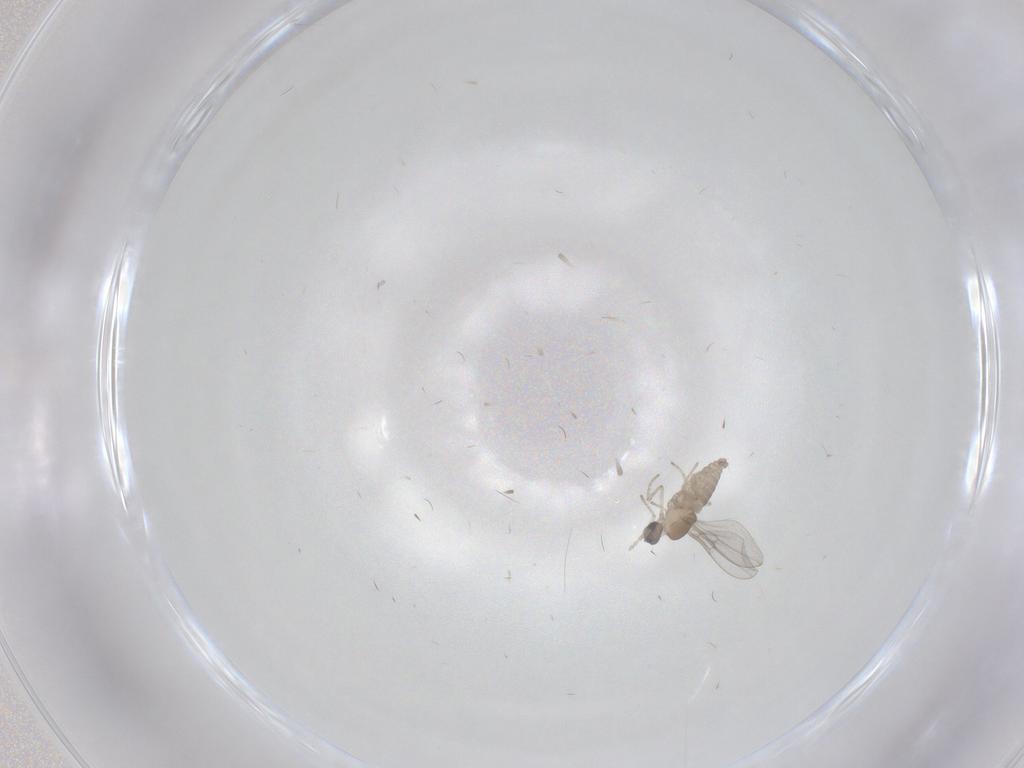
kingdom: Animalia
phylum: Arthropoda
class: Insecta
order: Diptera
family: Cecidomyiidae
